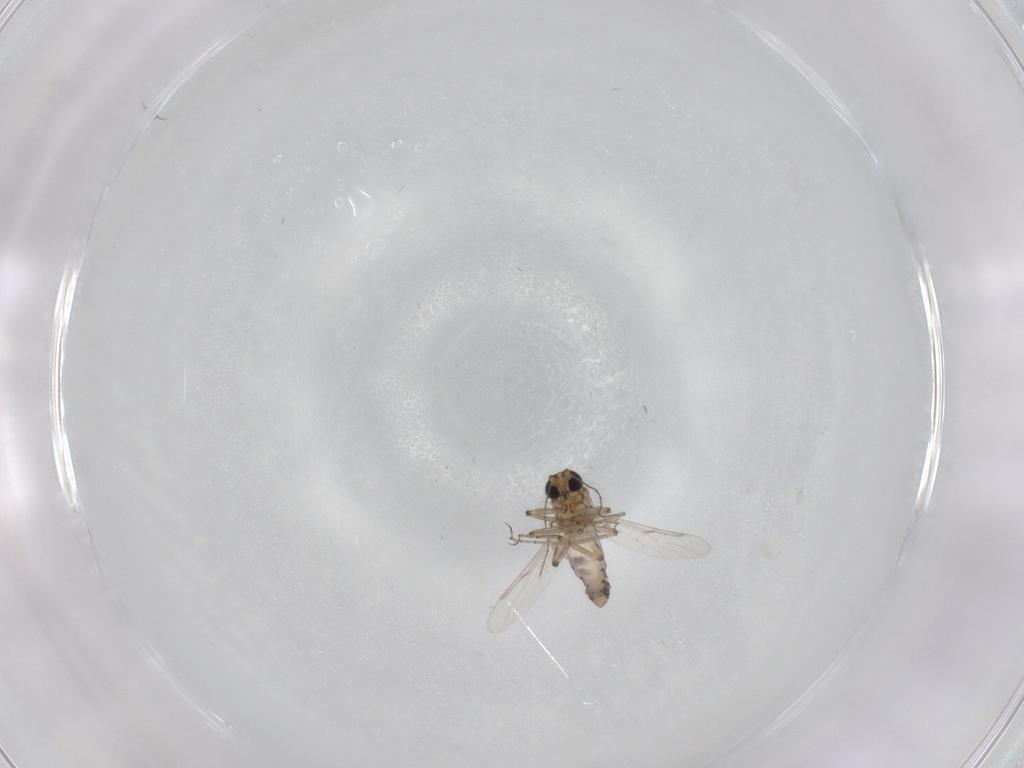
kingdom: Animalia
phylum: Arthropoda
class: Insecta
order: Diptera
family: Ceratopogonidae
